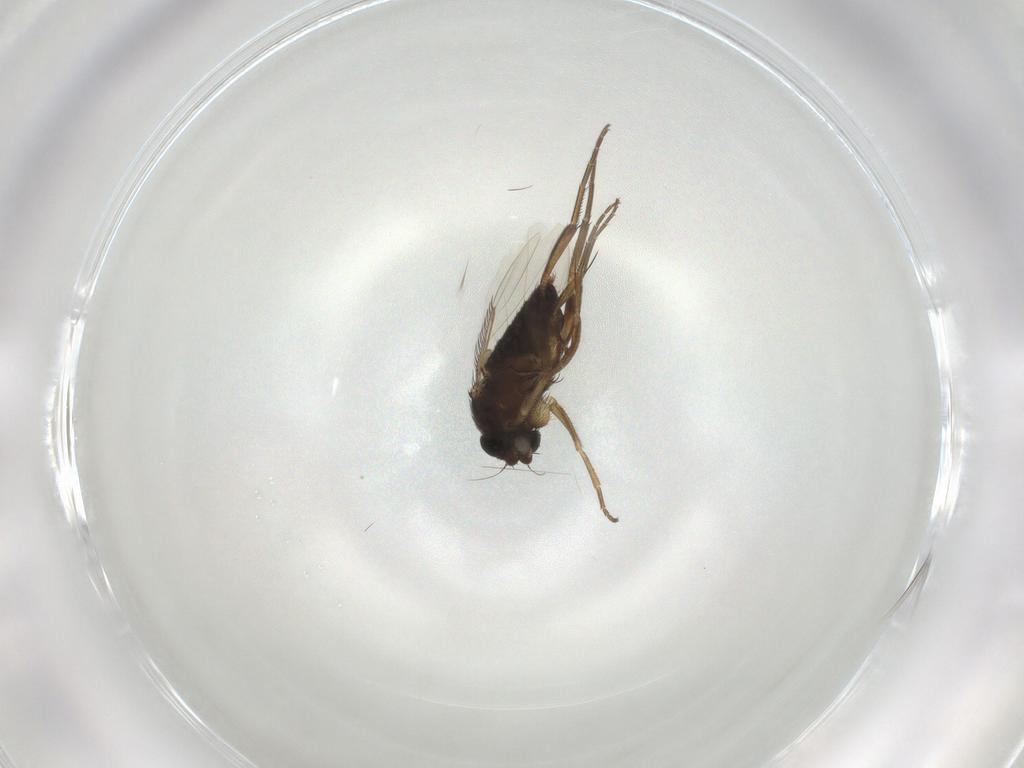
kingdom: Animalia
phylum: Arthropoda
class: Insecta
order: Diptera
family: Phoridae
